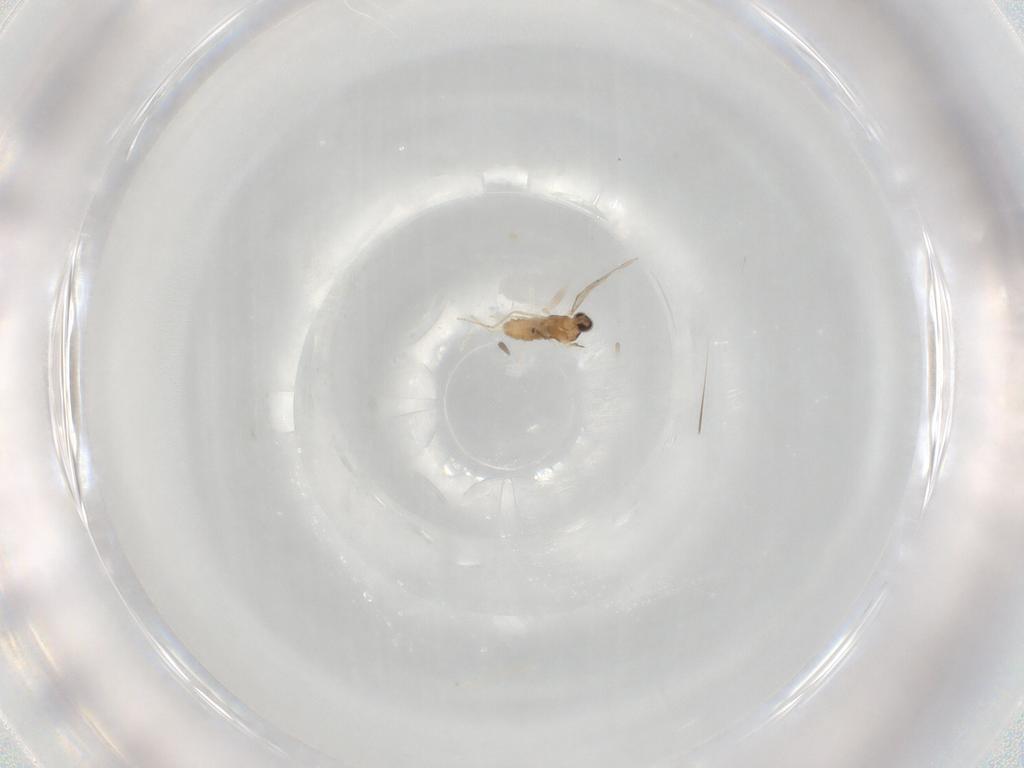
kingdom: Animalia
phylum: Arthropoda
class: Insecta
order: Diptera
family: Cecidomyiidae
